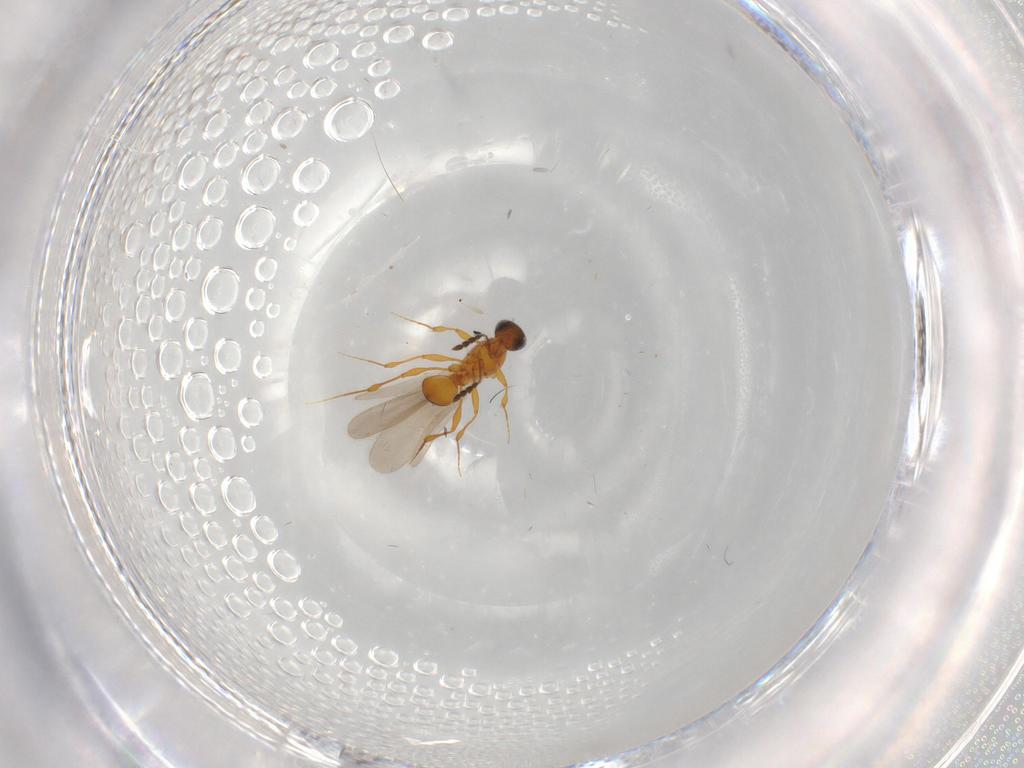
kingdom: Animalia
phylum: Arthropoda
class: Insecta
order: Hymenoptera
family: Platygastridae
